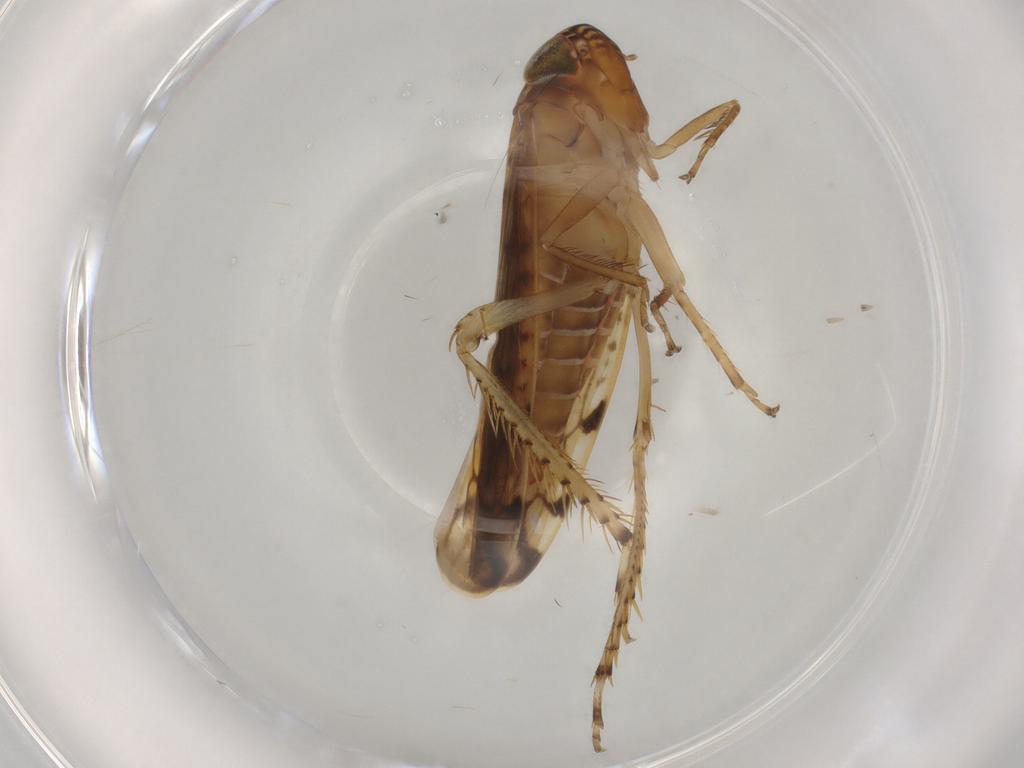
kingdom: Animalia
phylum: Arthropoda
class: Insecta
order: Hemiptera
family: Cicadellidae
